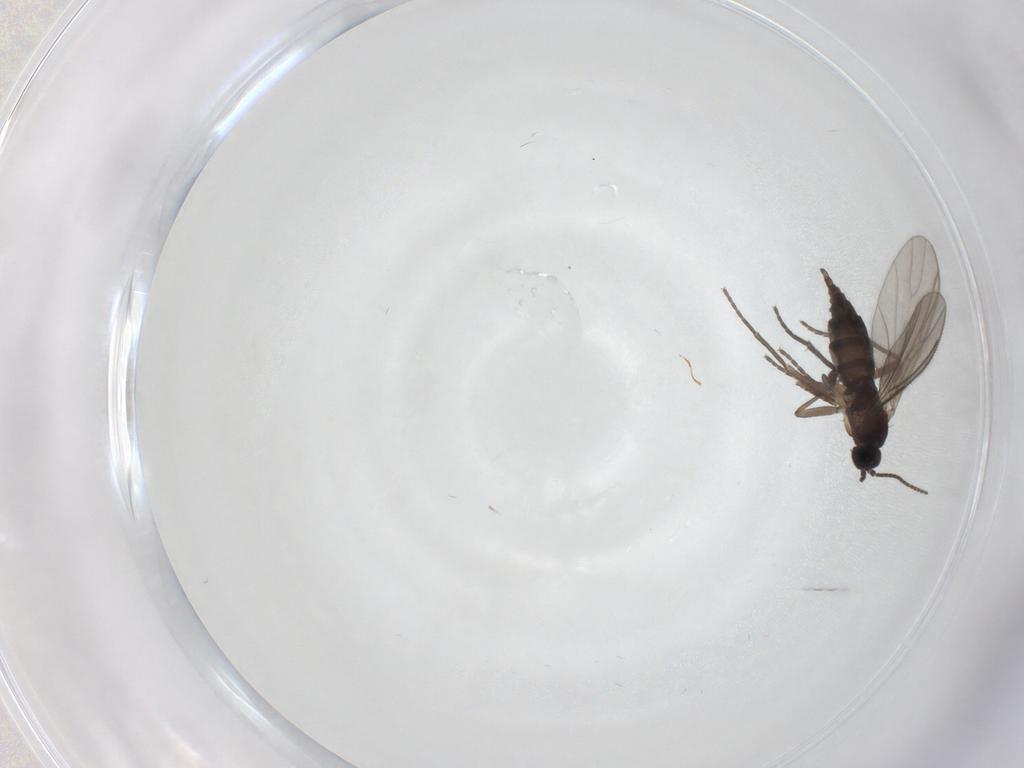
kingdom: Animalia
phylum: Arthropoda
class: Insecta
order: Diptera
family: Sciaridae
